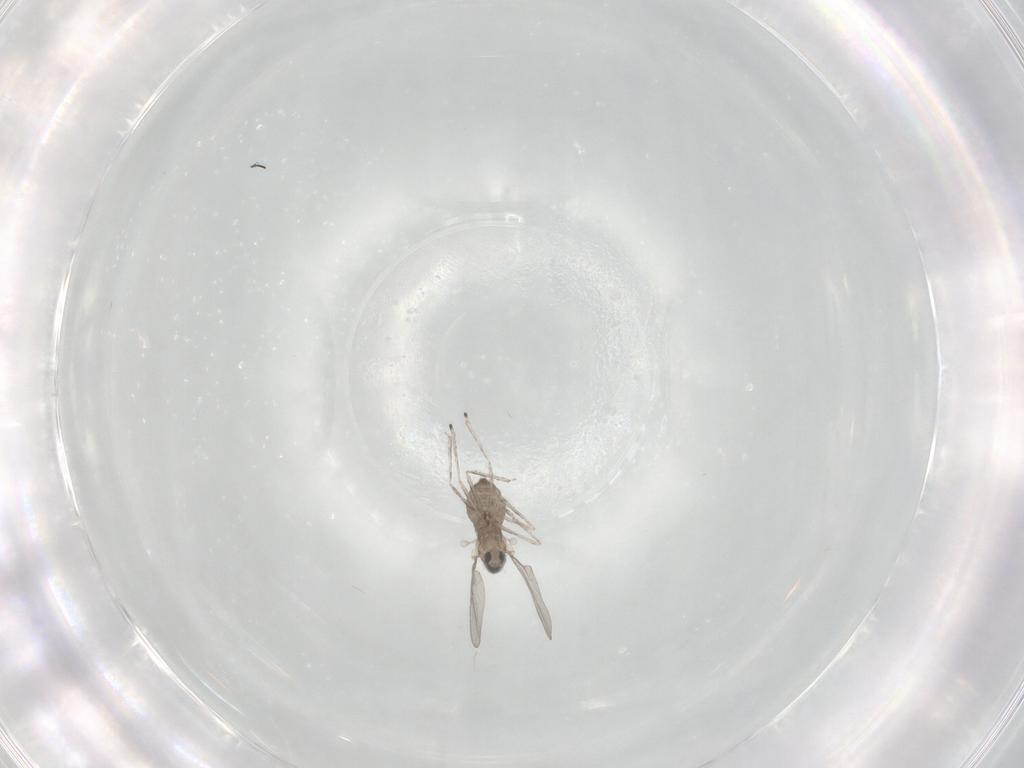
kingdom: Animalia
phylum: Arthropoda
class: Insecta
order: Diptera
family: Cecidomyiidae
